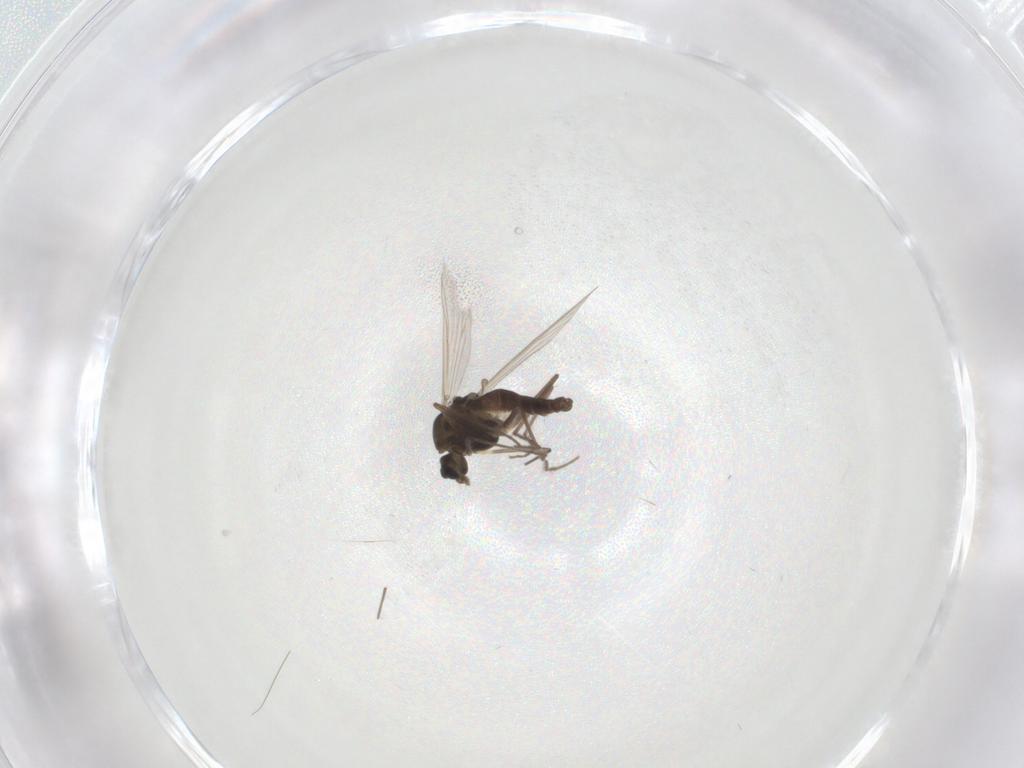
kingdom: Animalia
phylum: Arthropoda
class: Insecta
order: Diptera
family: Chironomidae
